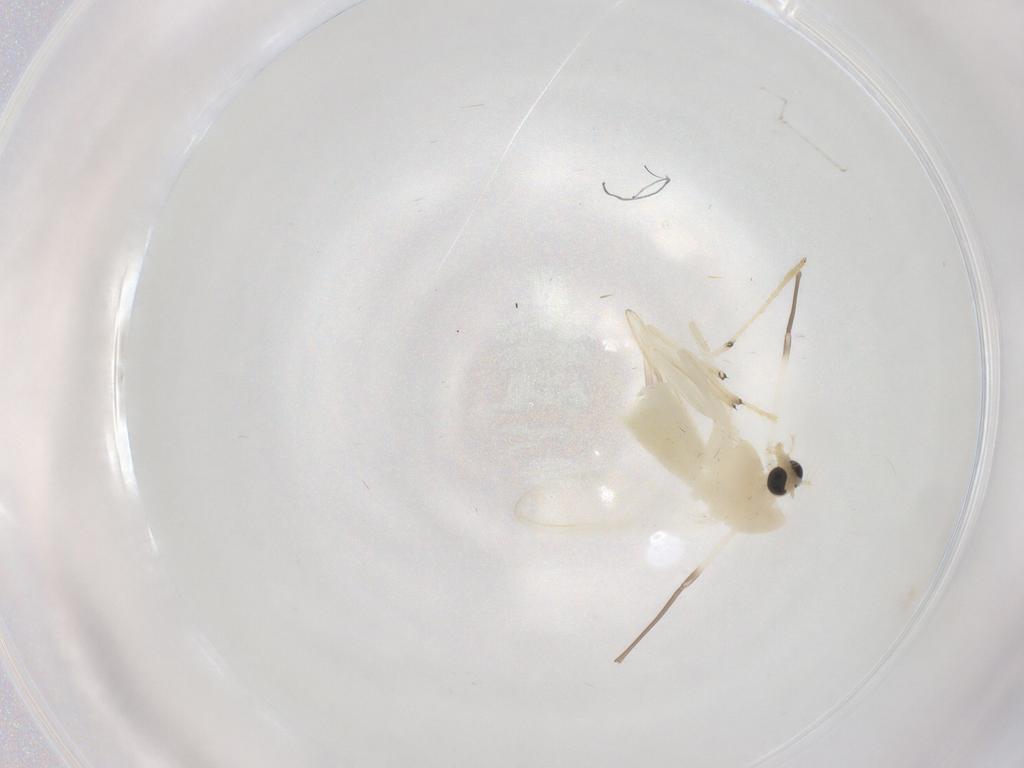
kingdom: Animalia
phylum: Arthropoda
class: Insecta
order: Diptera
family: Chironomidae
